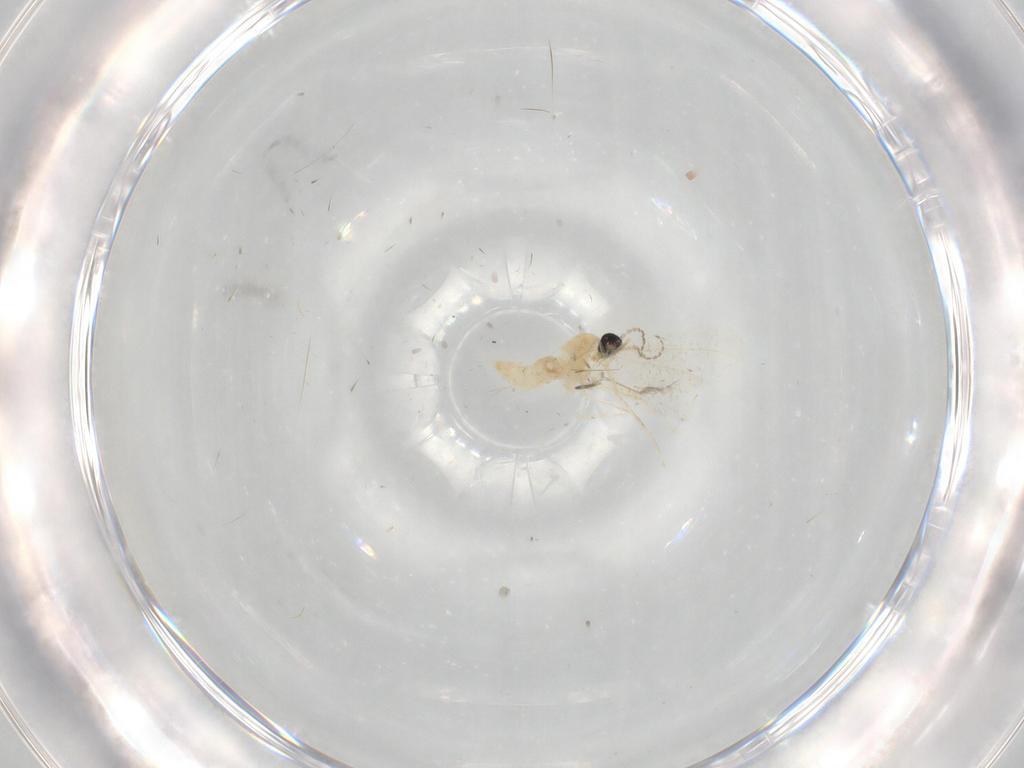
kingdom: Animalia
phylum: Arthropoda
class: Insecta
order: Diptera
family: Cecidomyiidae
